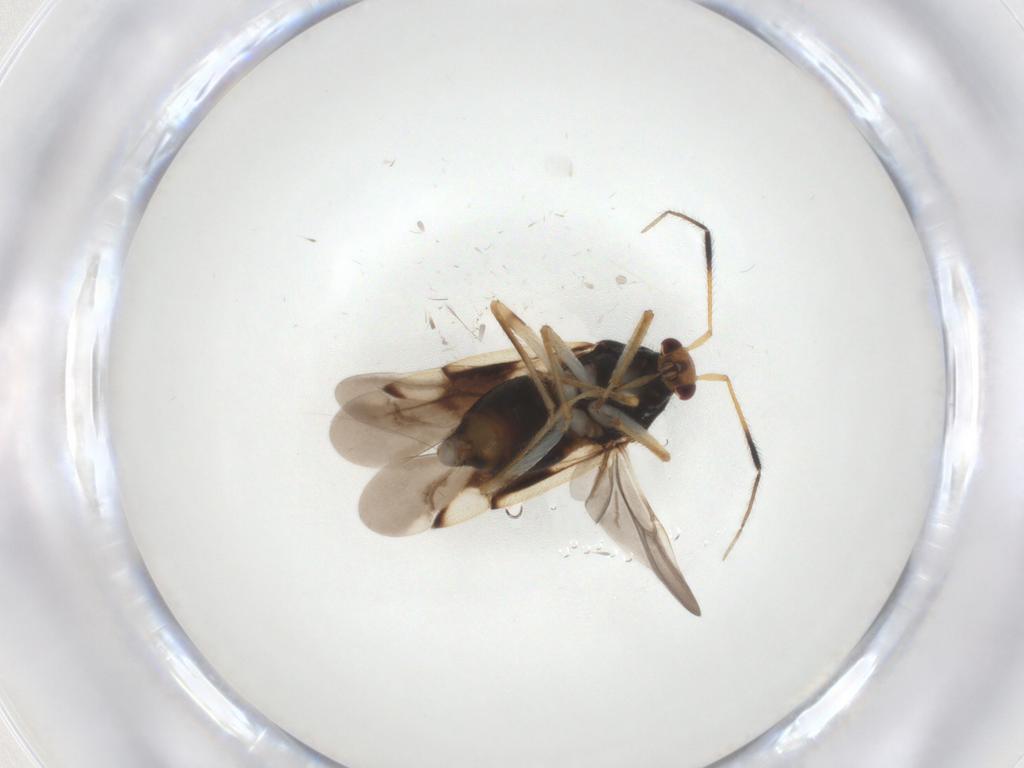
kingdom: Animalia
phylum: Arthropoda
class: Insecta
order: Hemiptera
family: Miridae
